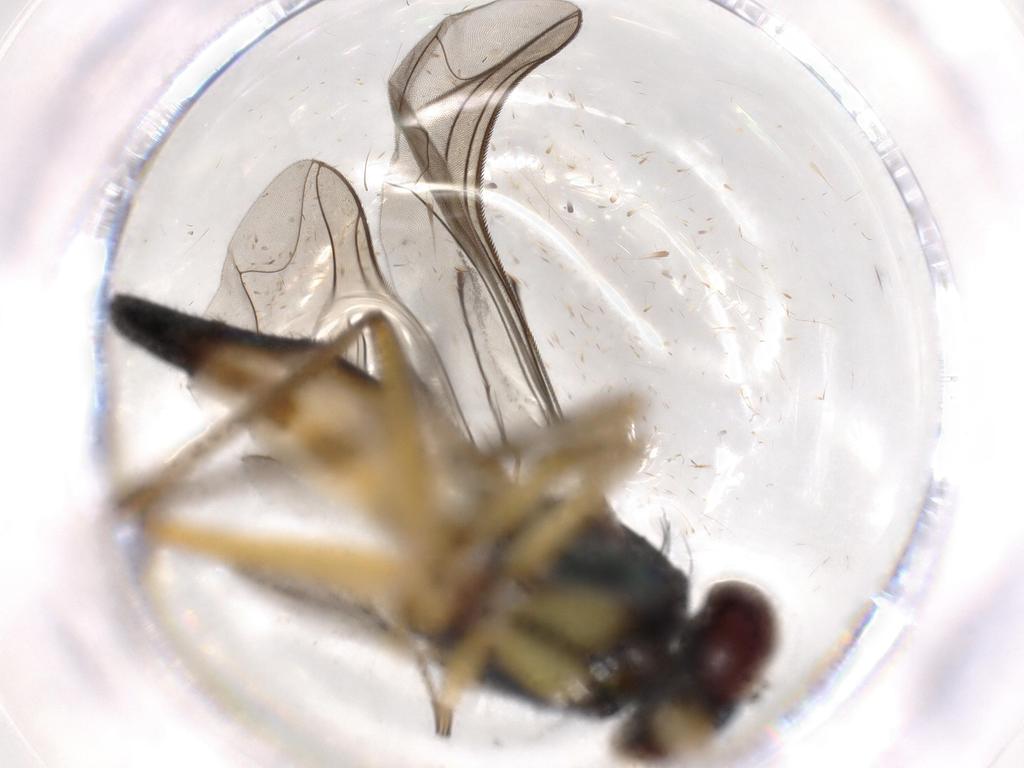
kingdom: Animalia
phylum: Arthropoda
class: Insecta
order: Diptera
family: Dolichopodidae
